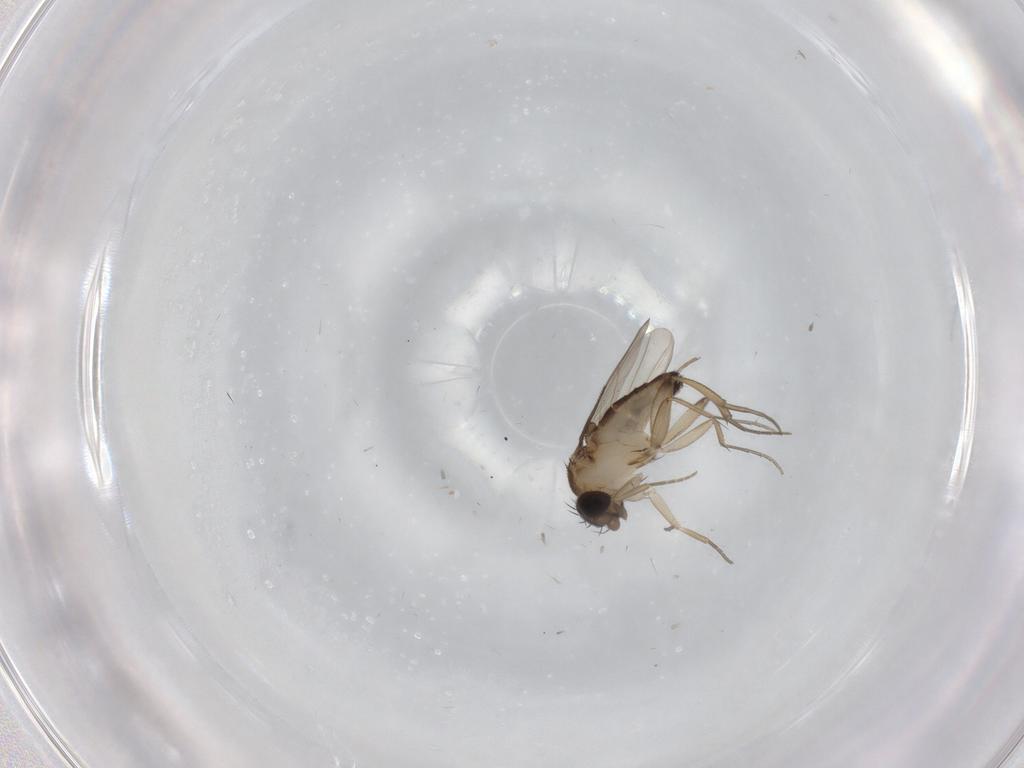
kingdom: Animalia
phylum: Arthropoda
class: Insecta
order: Diptera
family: Phoridae
